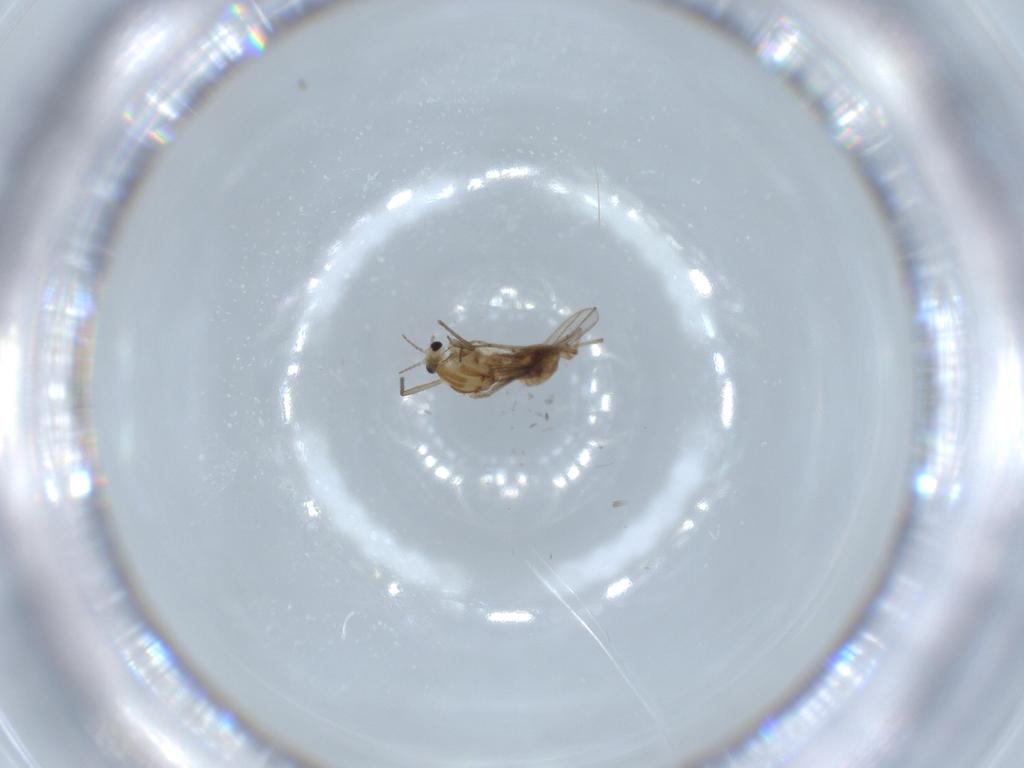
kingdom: Animalia
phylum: Arthropoda
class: Insecta
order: Diptera
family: Chironomidae
